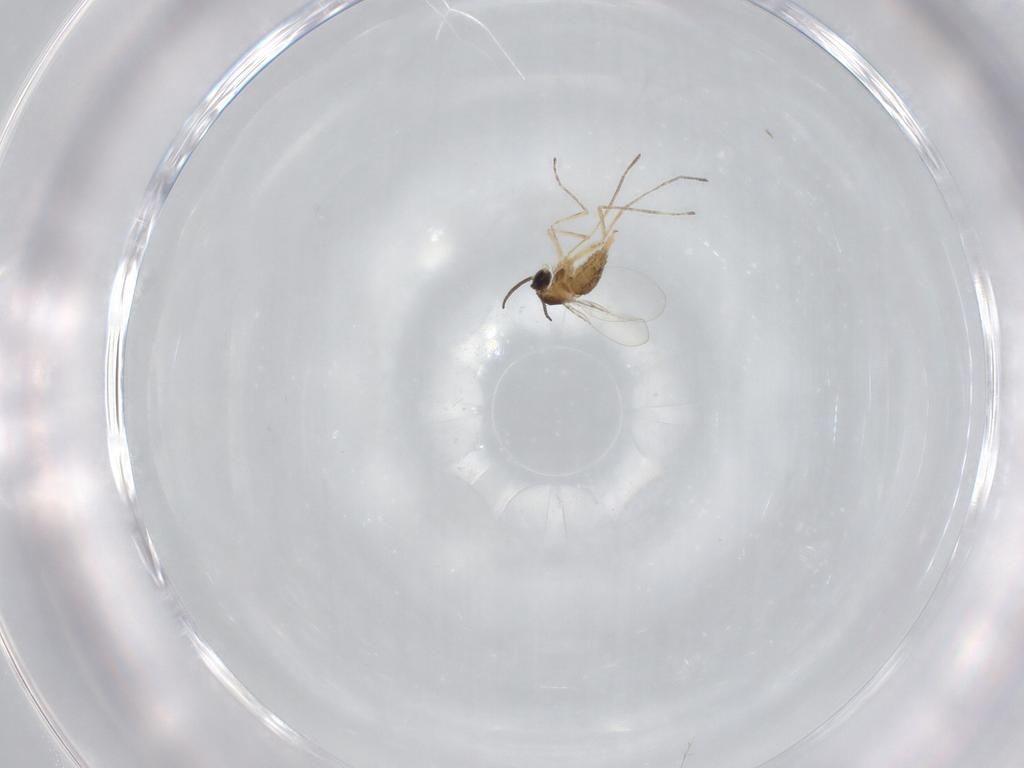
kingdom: Animalia
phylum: Arthropoda
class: Insecta
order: Diptera
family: Cecidomyiidae
